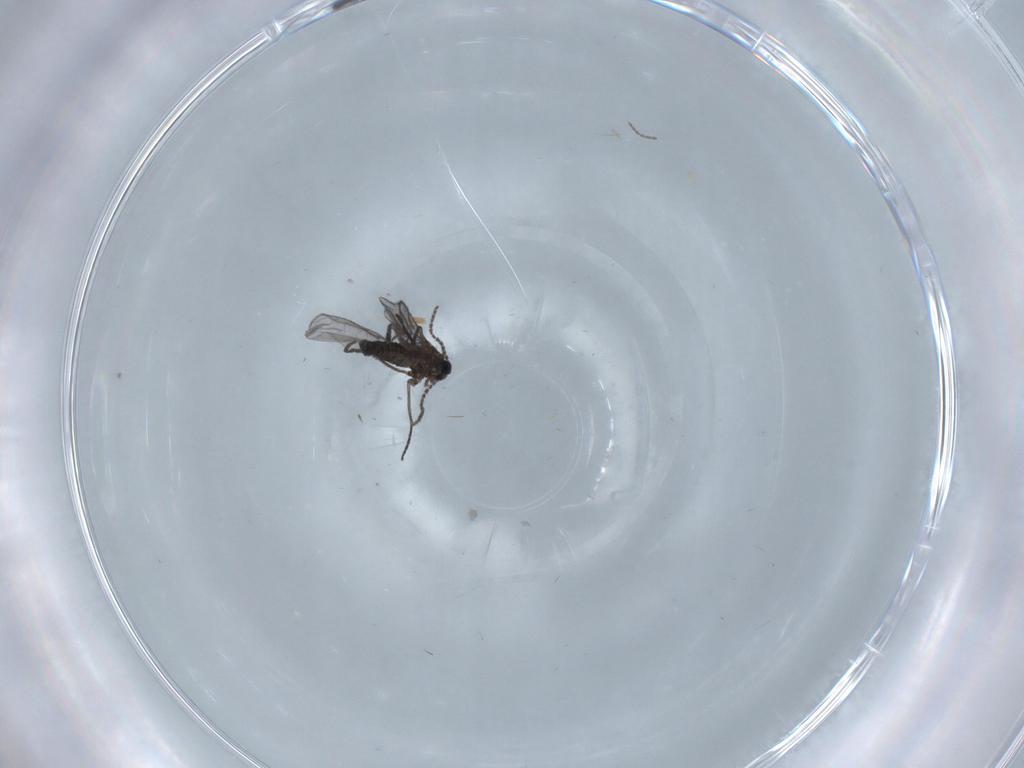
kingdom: Animalia
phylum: Arthropoda
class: Insecta
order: Diptera
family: Cecidomyiidae
